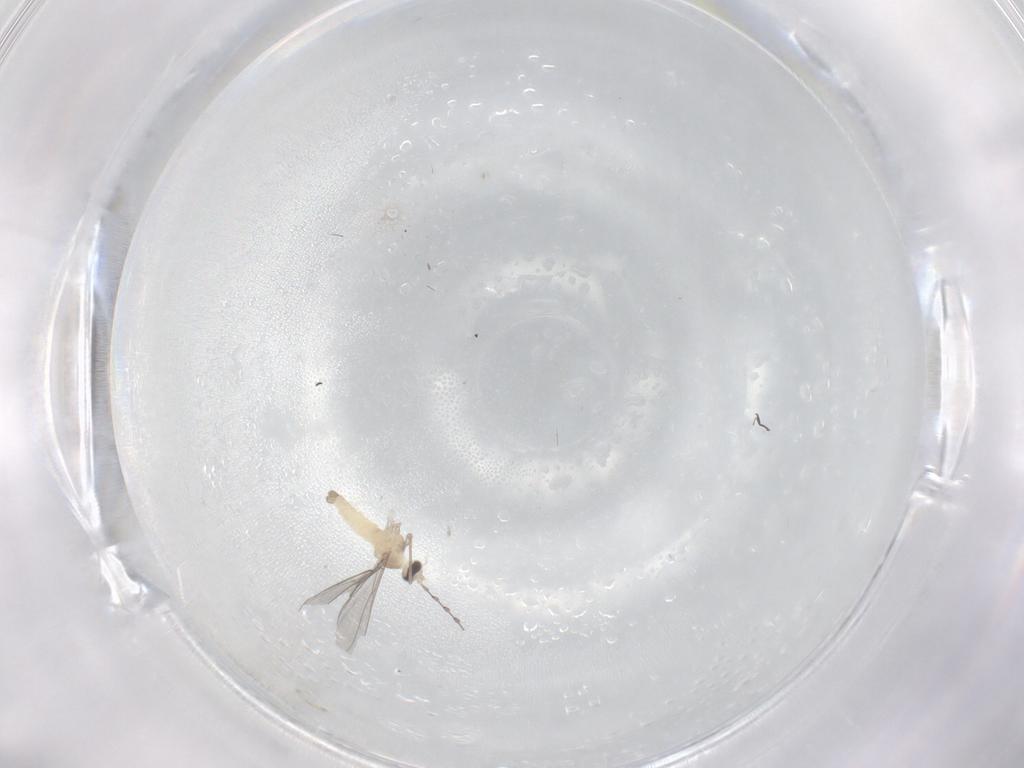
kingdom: Animalia
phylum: Arthropoda
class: Insecta
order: Diptera
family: Cecidomyiidae
